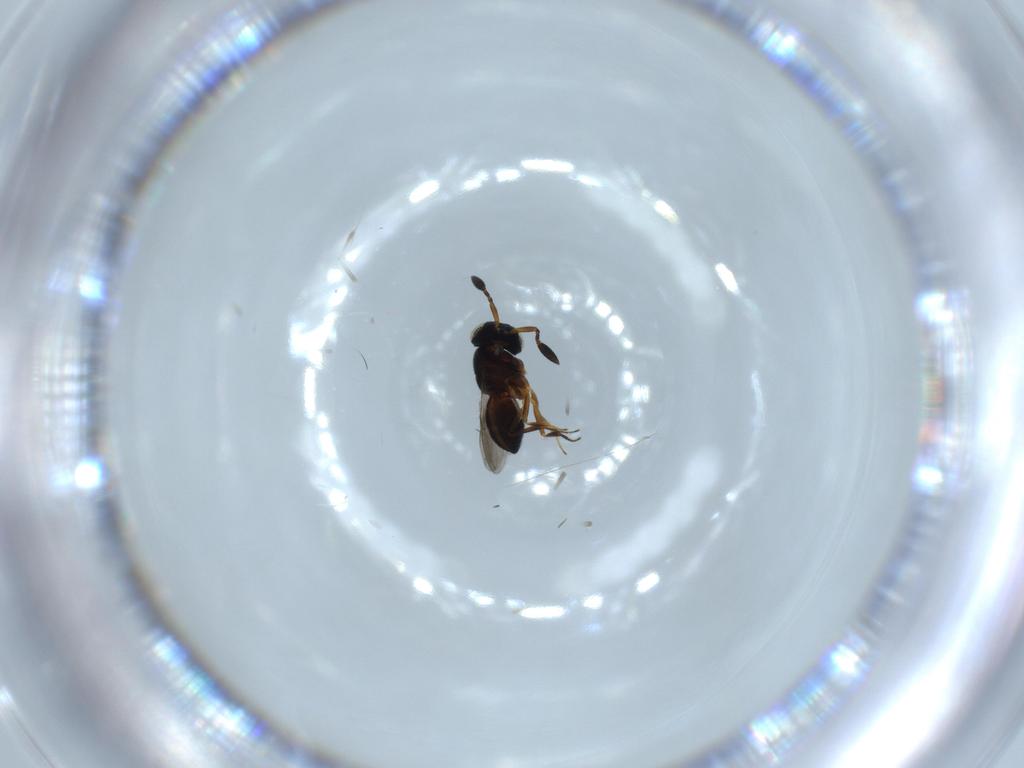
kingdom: Animalia
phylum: Arthropoda
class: Insecta
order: Hymenoptera
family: Scelionidae
